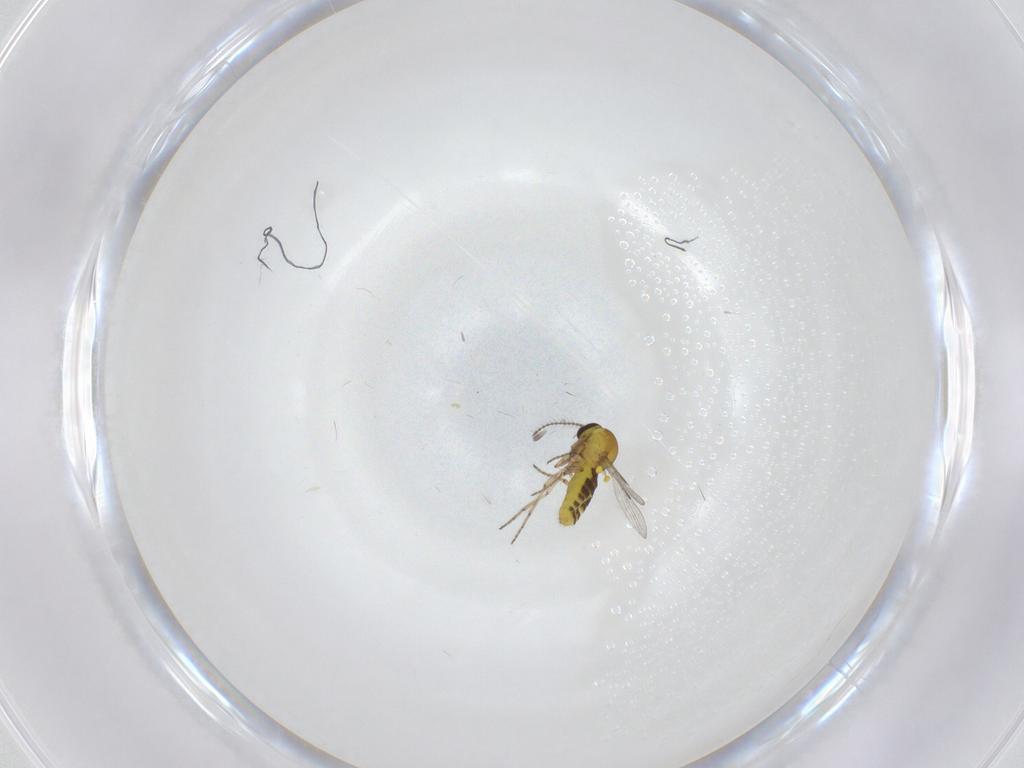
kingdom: Animalia
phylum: Arthropoda
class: Insecta
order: Diptera
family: Ceratopogonidae
